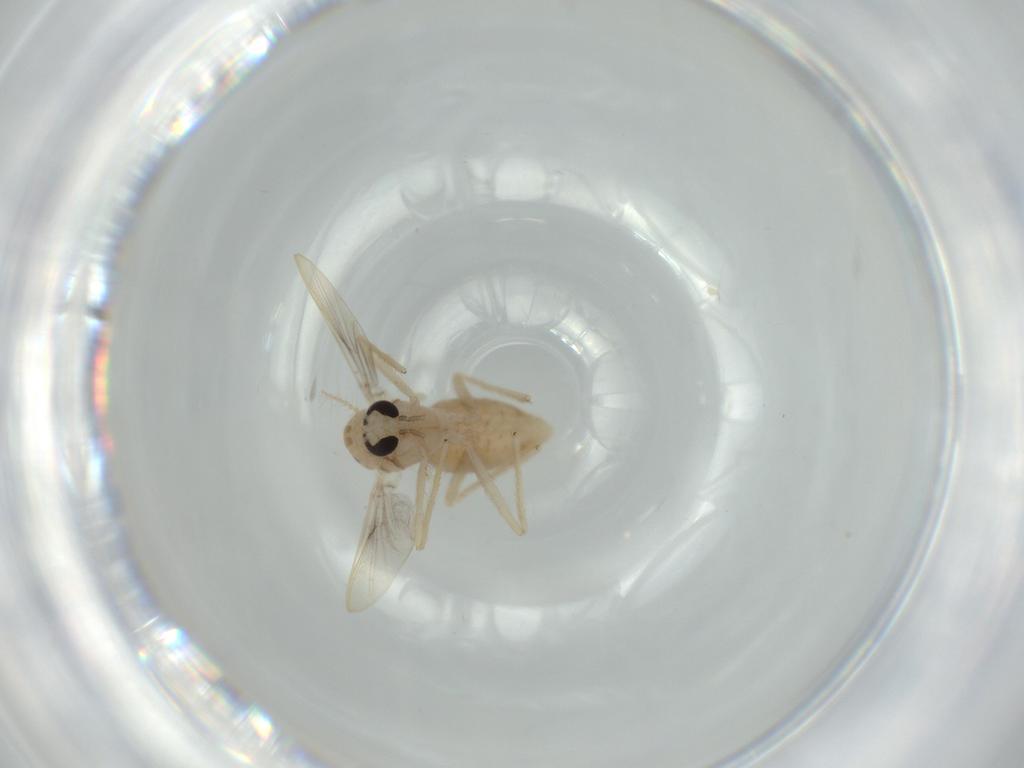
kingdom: Animalia
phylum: Arthropoda
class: Insecta
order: Diptera
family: Chironomidae
